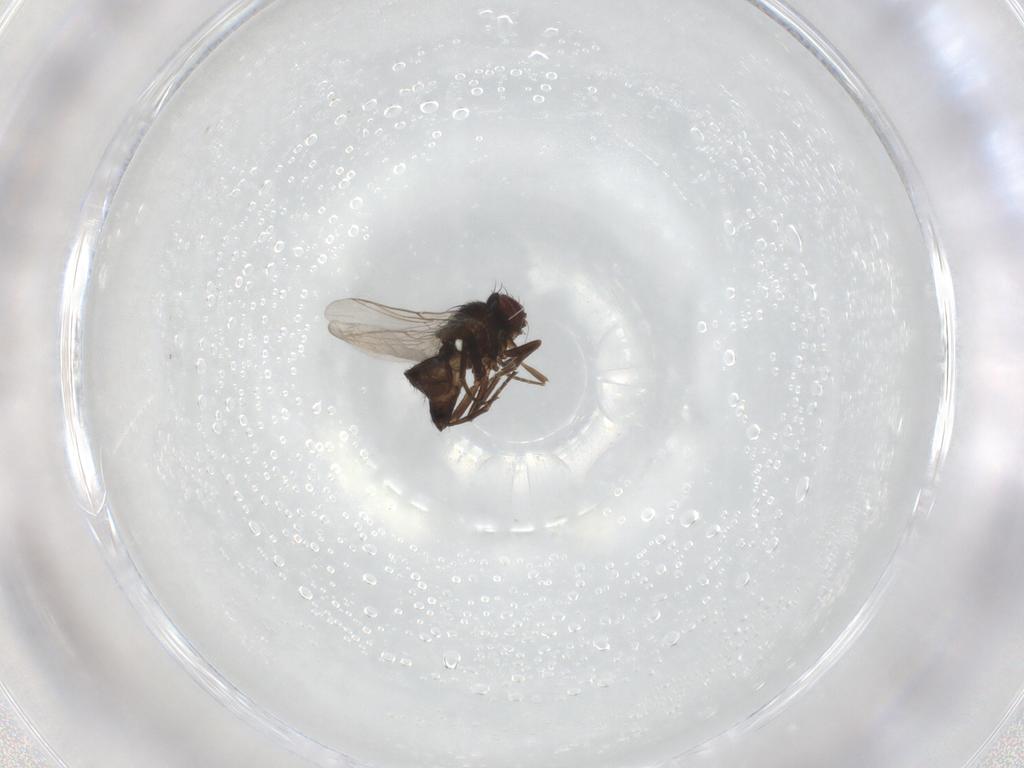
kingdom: Animalia
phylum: Arthropoda
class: Insecta
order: Diptera
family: Cecidomyiidae
